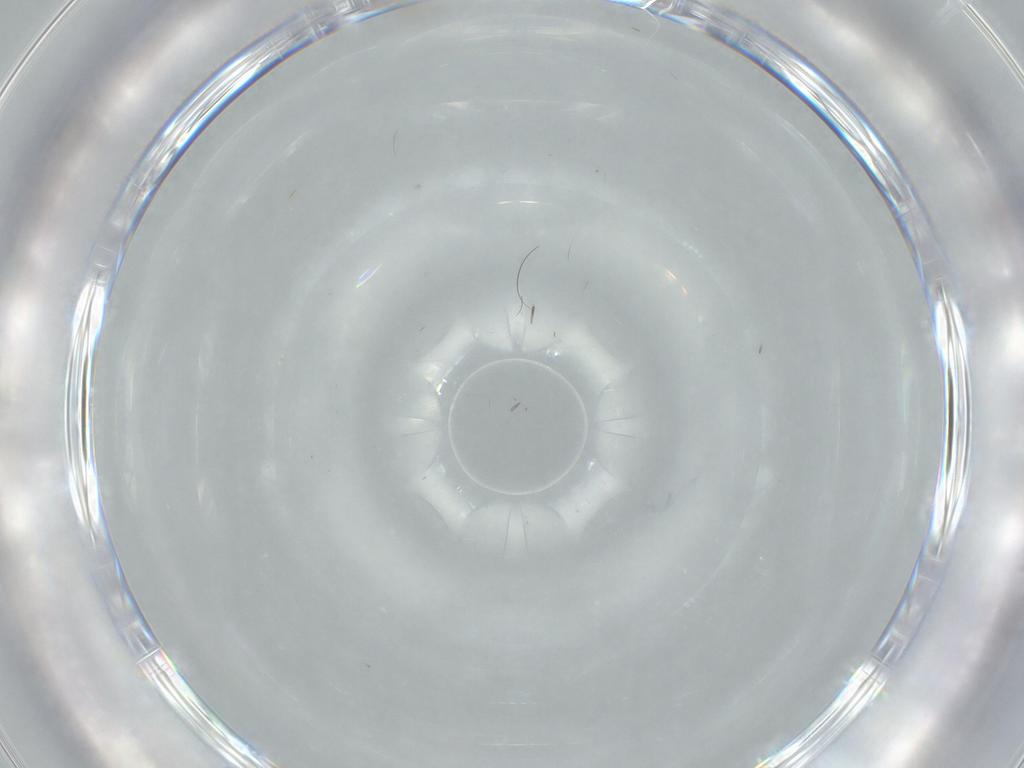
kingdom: Animalia
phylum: Arthropoda
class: Insecta
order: Diptera
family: Cecidomyiidae
